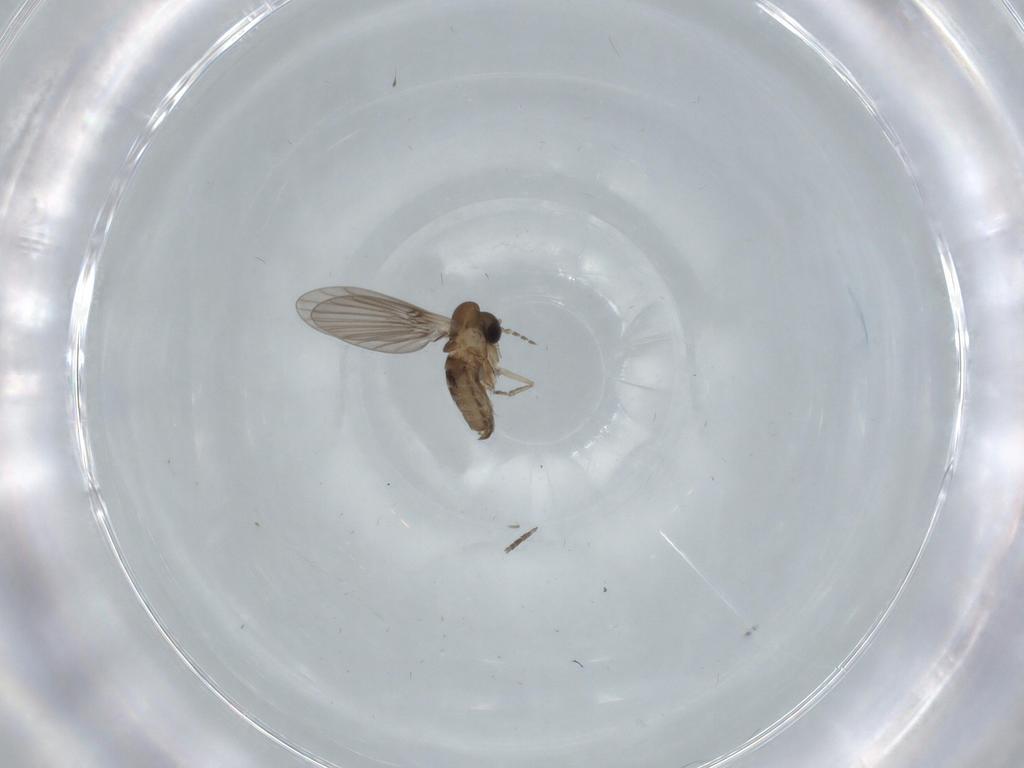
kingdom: Animalia
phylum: Arthropoda
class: Insecta
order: Diptera
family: Psychodidae
